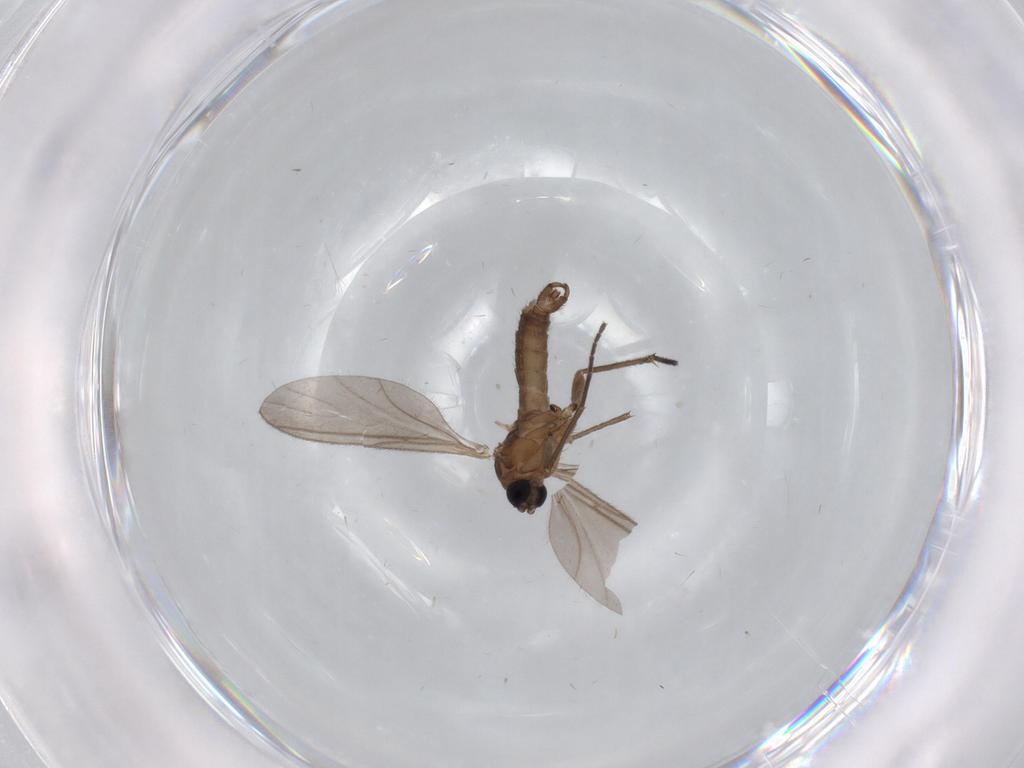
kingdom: Animalia
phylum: Arthropoda
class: Insecta
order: Diptera
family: Sciaridae
